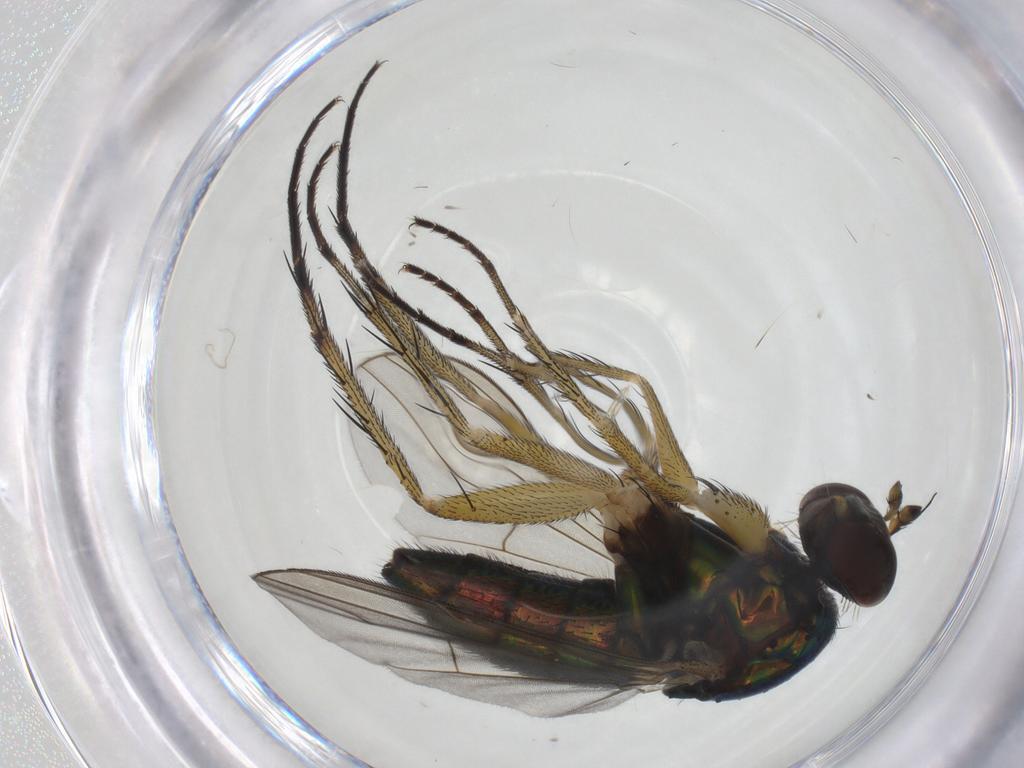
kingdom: Animalia
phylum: Arthropoda
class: Insecta
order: Diptera
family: Dolichopodidae
